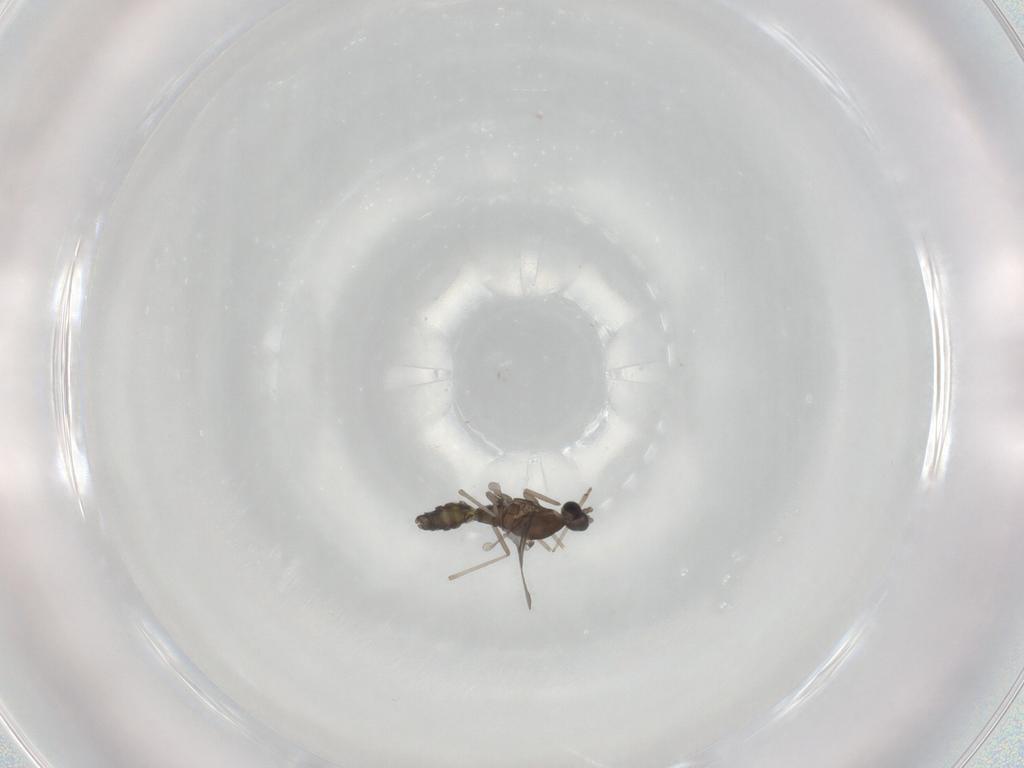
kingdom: Animalia
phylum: Arthropoda
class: Insecta
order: Diptera
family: Cecidomyiidae
